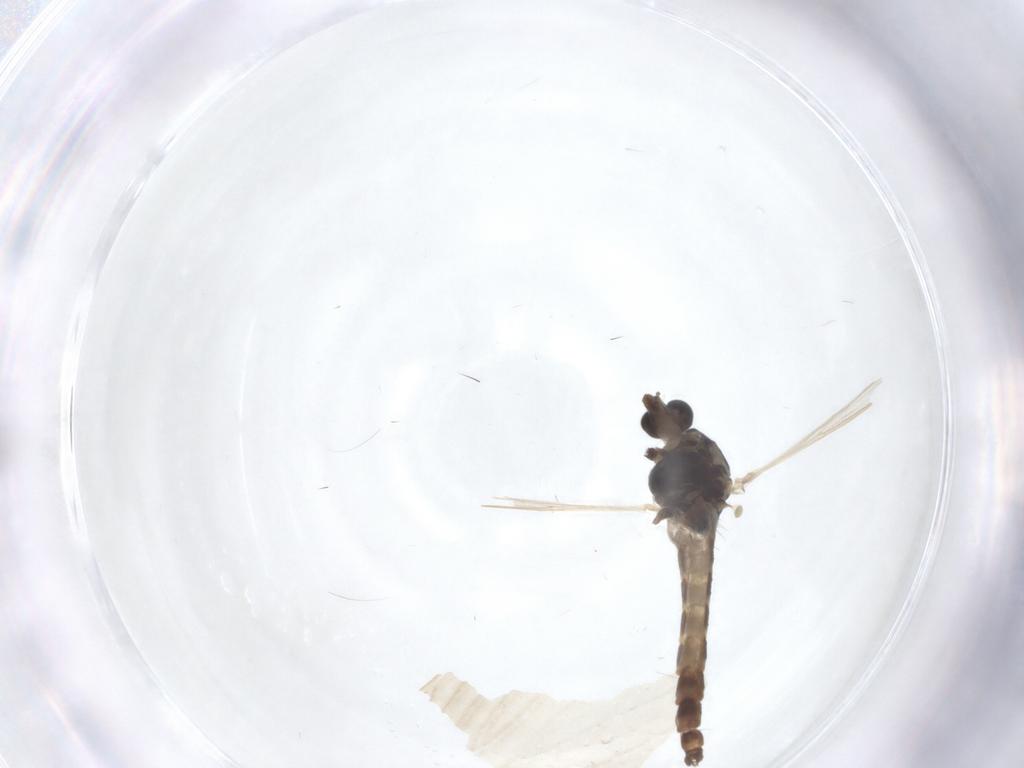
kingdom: Animalia
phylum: Arthropoda
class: Insecta
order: Diptera
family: Chironomidae
